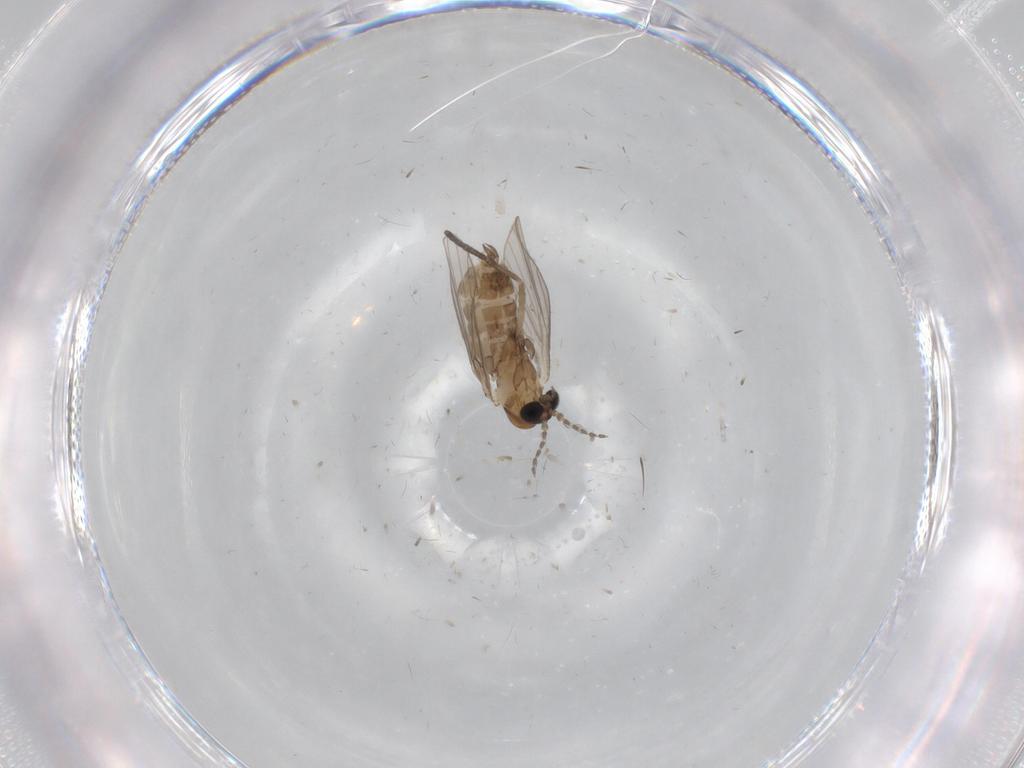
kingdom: Animalia
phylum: Arthropoda
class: Insecta
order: Diptera
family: Psychodidae
